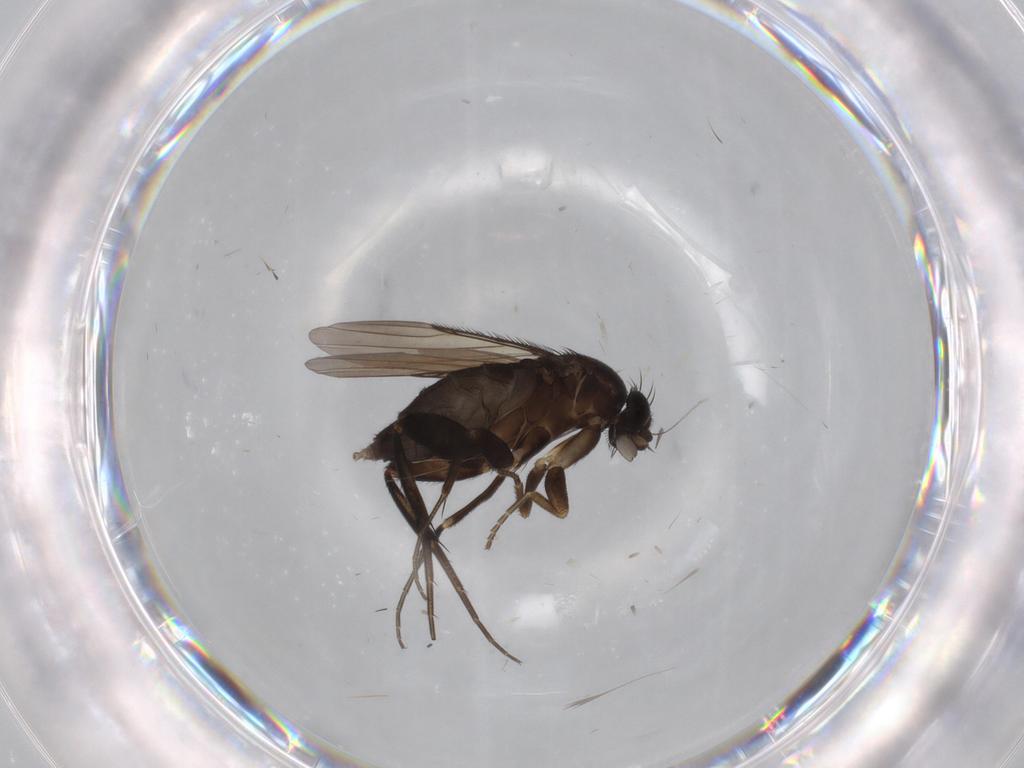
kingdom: Animalia
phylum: Arthropoda
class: Insecta
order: Diptera
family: Phoridae
